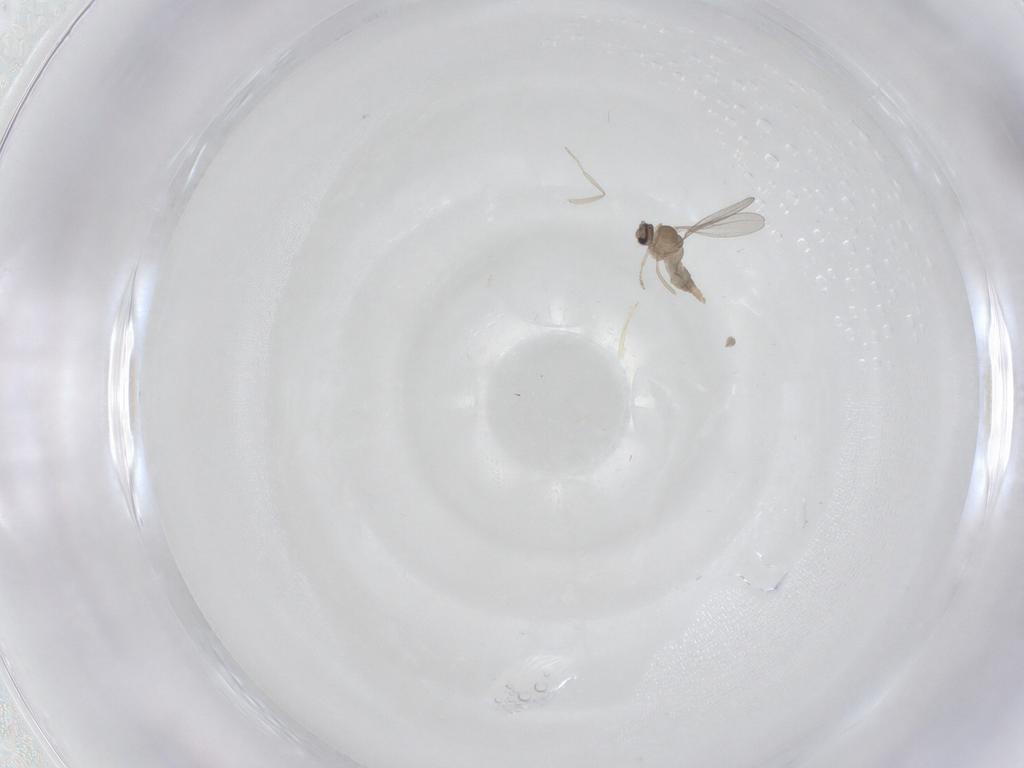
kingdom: Animalia
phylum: Arthropoda
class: Insecta
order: Diptera
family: Cecidomyiidae
